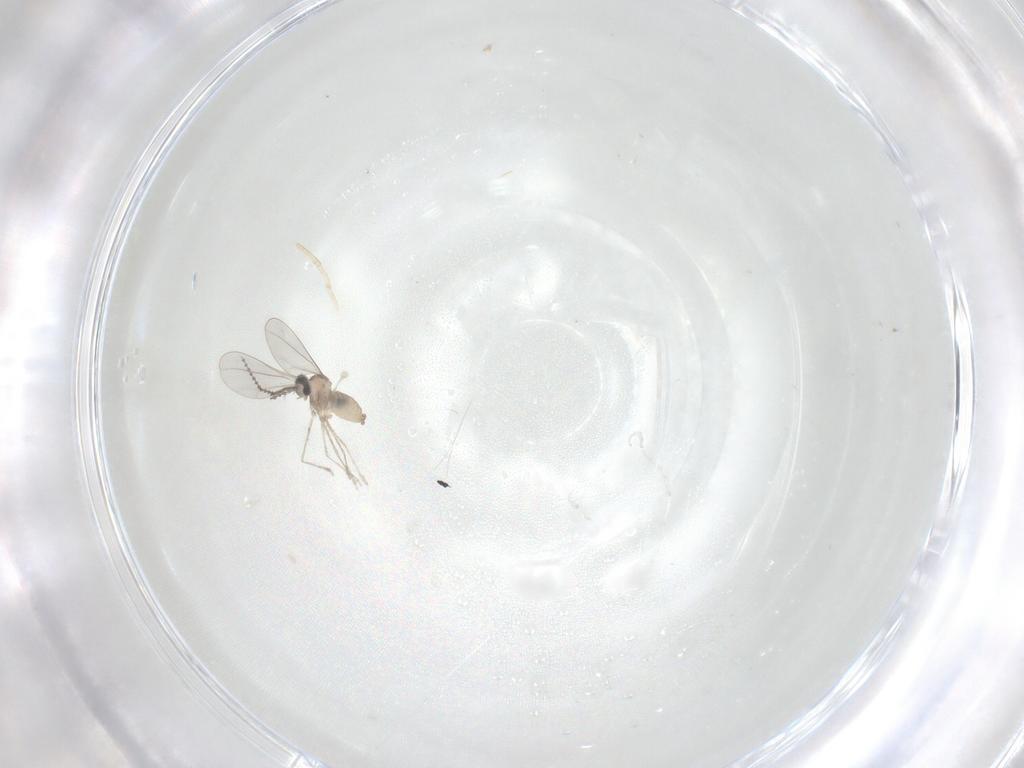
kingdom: Animalia
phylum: Arthropoda
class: Insecta
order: Diptera
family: Cecidomyiidae
